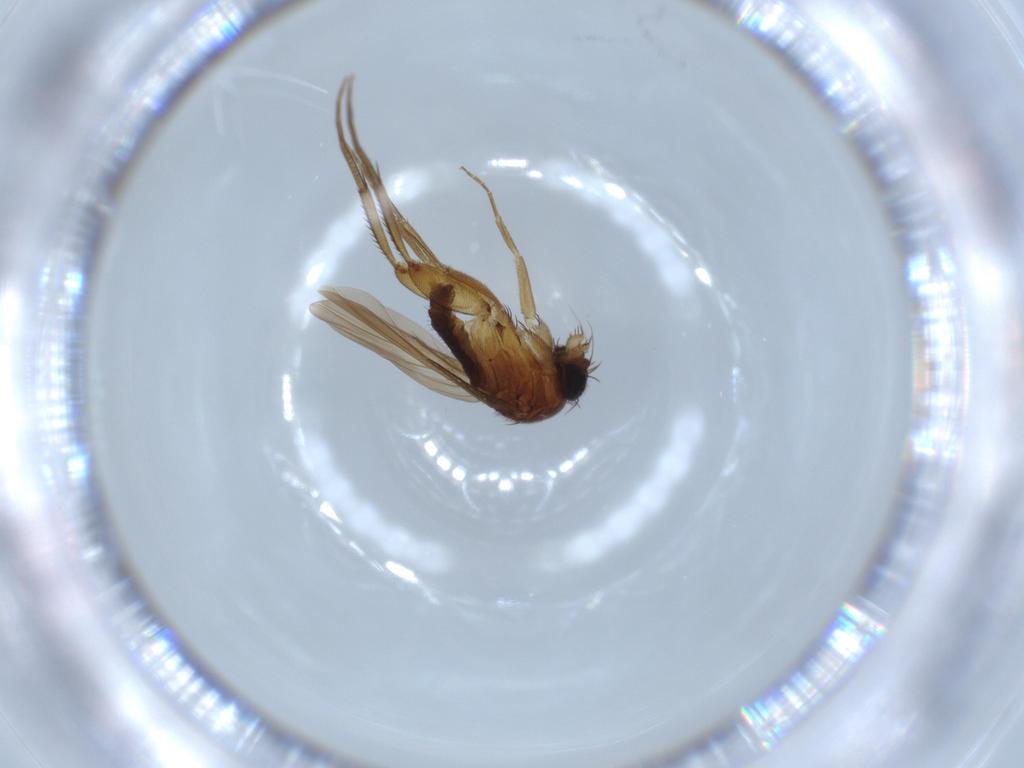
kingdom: Animalia
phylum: Arthropoda
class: Insecta
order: Diptera
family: Phoridae
